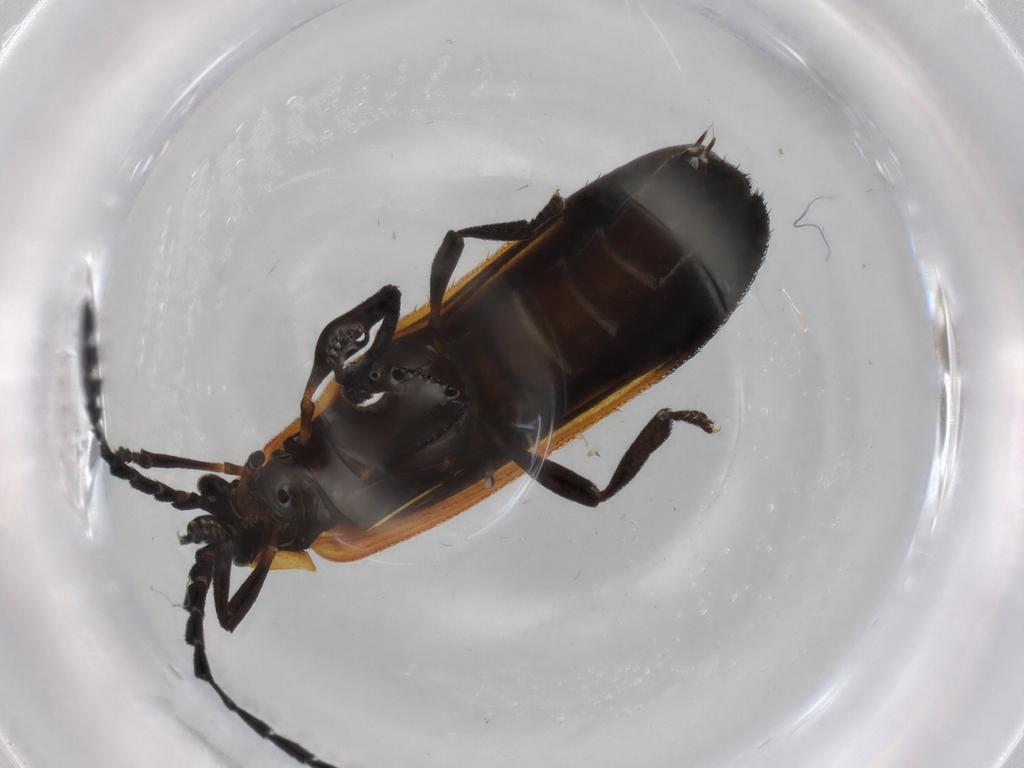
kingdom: Animalia
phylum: Arthropoda
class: Insecta
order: Coleoptera
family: Lycidae
